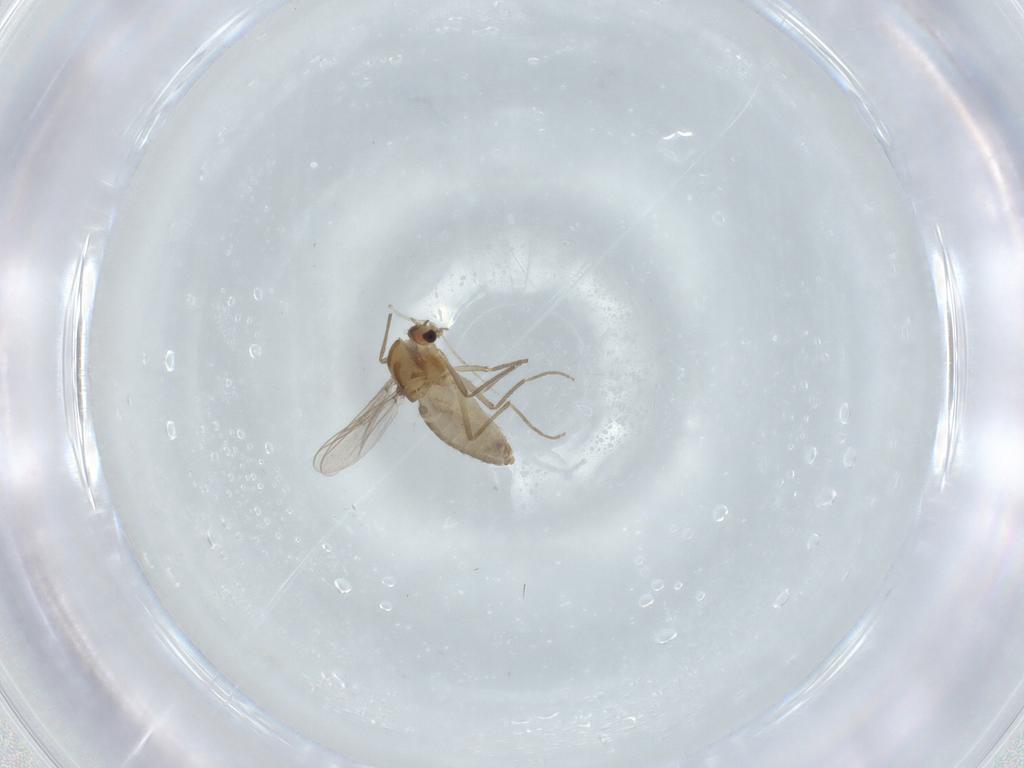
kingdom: Animalia
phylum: Arthropoda
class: Insecta
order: Diptera
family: Chironomidae
